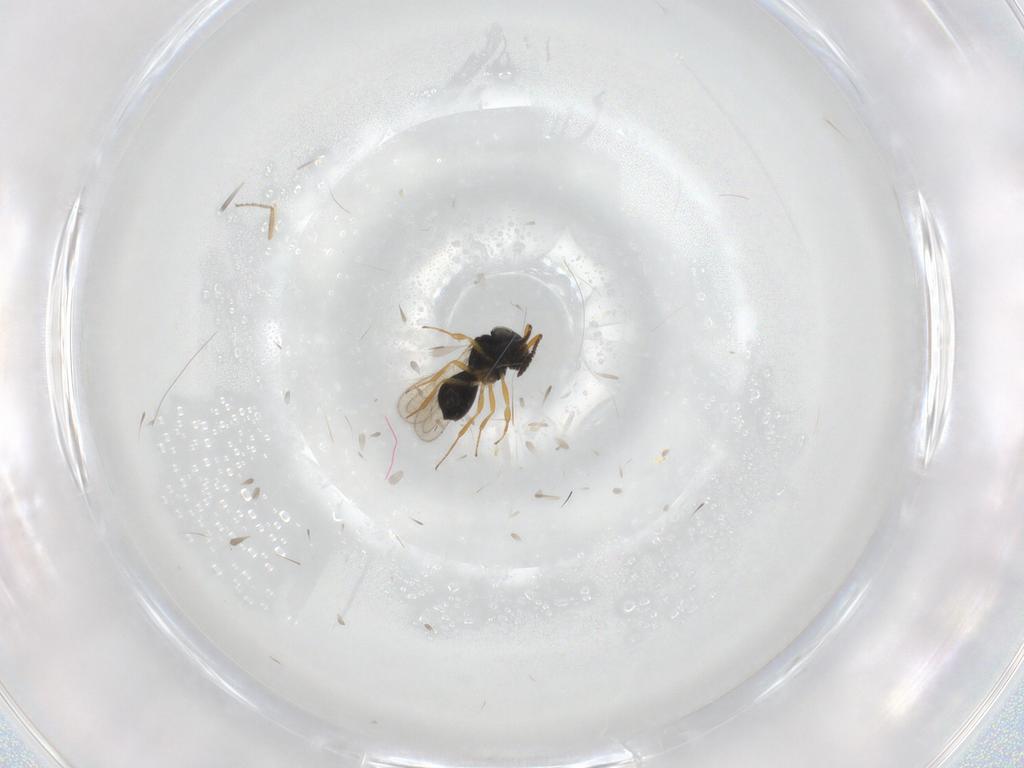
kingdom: Animalia
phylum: Arthropoda
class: Insecta
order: Hymenoptera
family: Scelionidae
